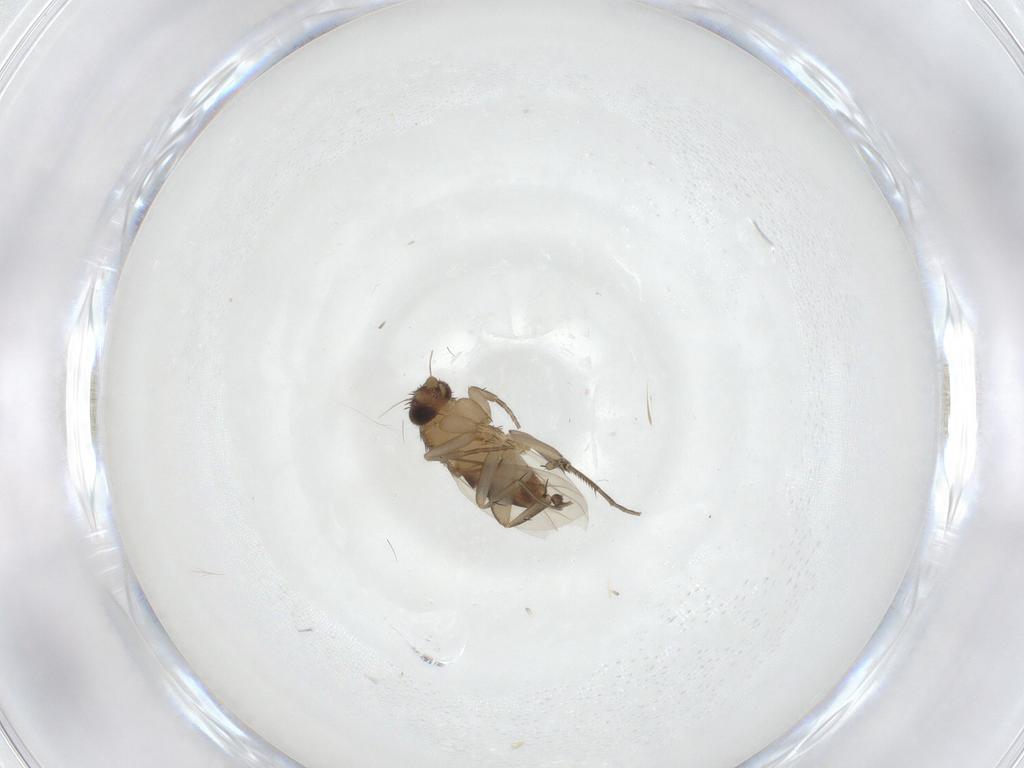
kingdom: Animalia
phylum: Arthropoda
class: Insecta
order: Diptera
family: Phoridae
